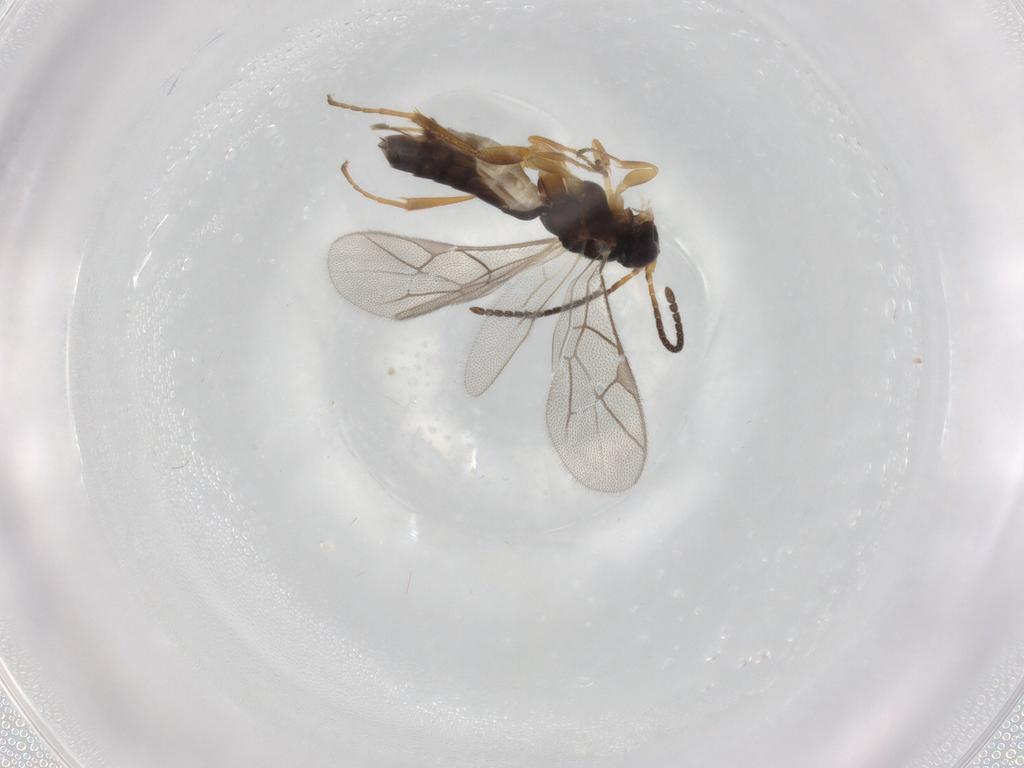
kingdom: Animalia
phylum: Arthropoda
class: Insecta
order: Hymenoptera
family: Ichneumonidae
